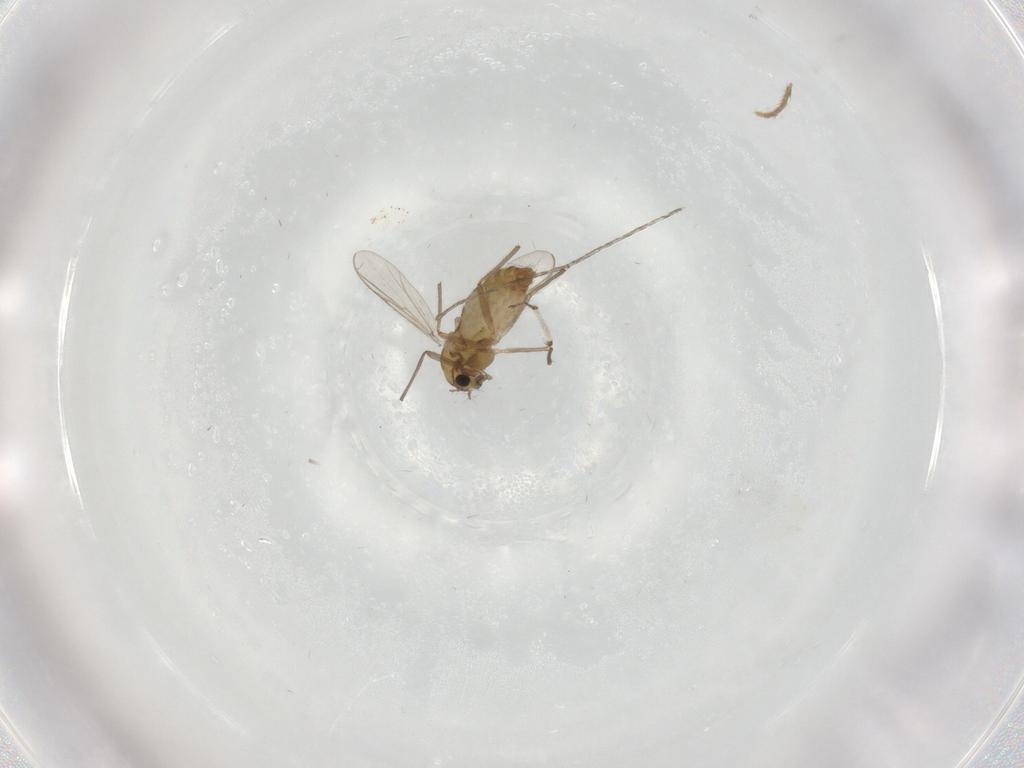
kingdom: Animalia
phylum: Arthropoda
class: Insecta
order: Diptera
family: Chironomidae
